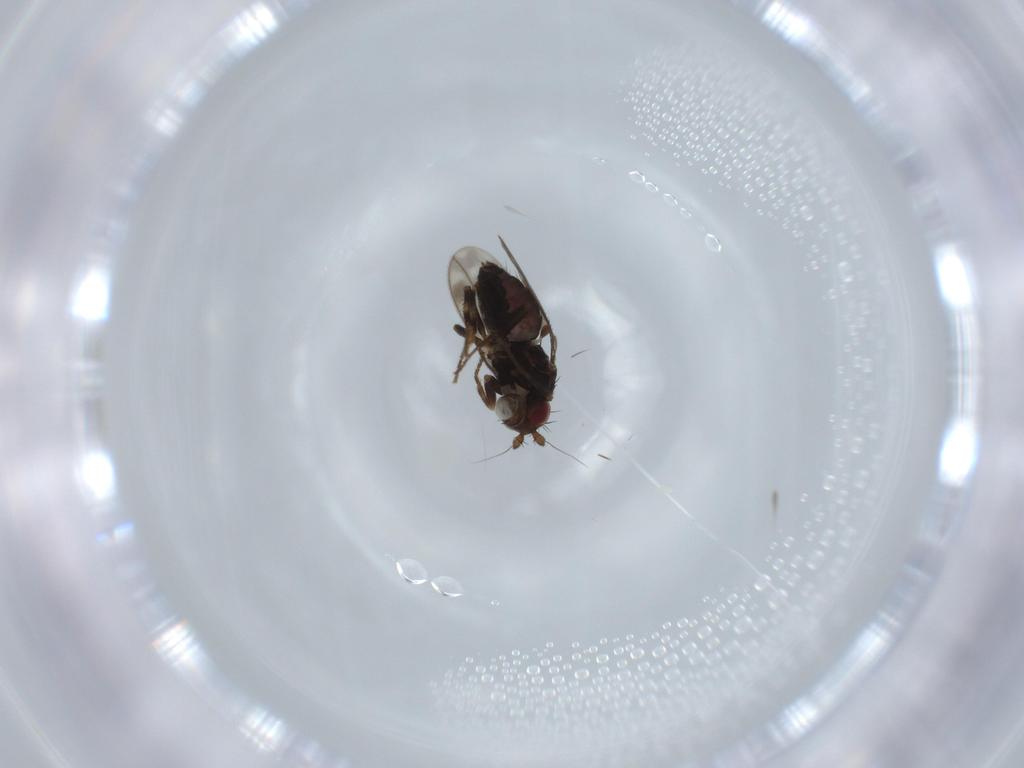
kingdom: Animalia
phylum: Arthropoda
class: Insecta
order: Diptera
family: Sphaeroceridae
